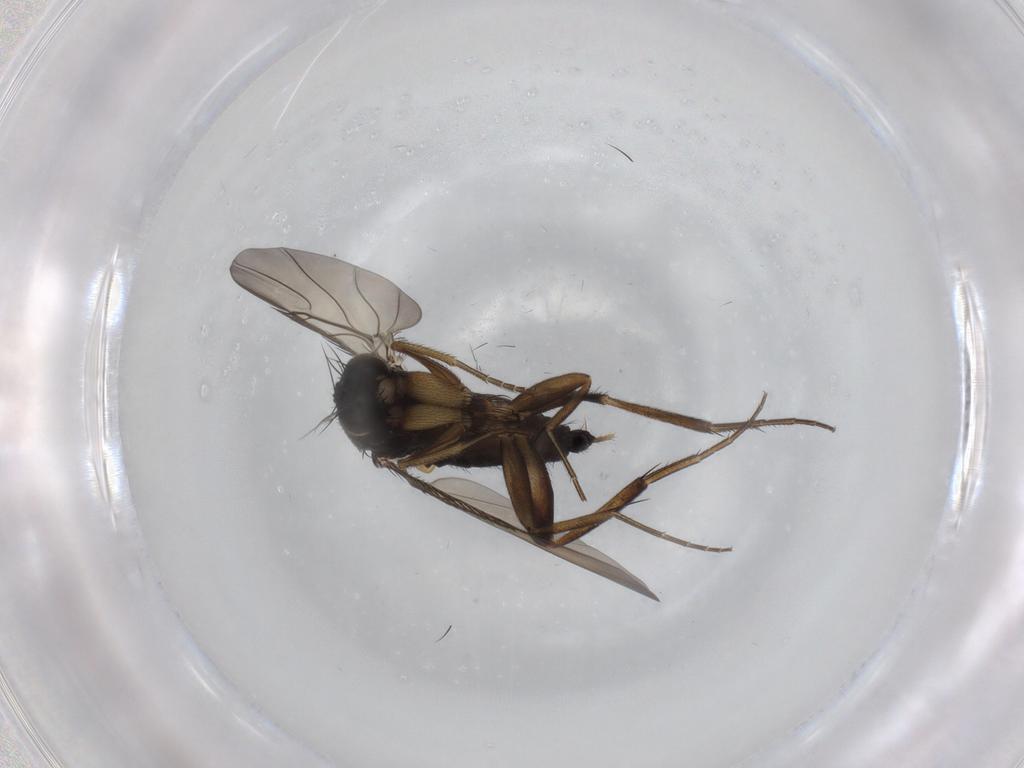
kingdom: Animalia
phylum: Arthropoda
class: Insecta
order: Diptera
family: Phoridae
